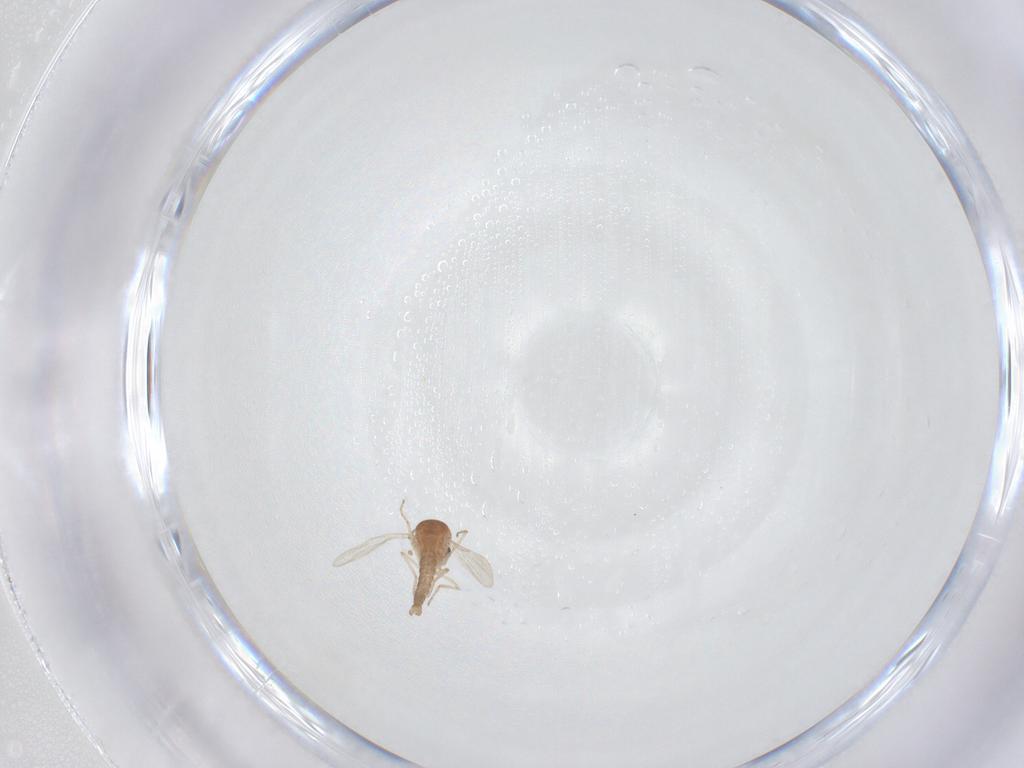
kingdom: Animalia
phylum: Arthropoda
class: Insecta
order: Diptera
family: Ceratopogonidae
